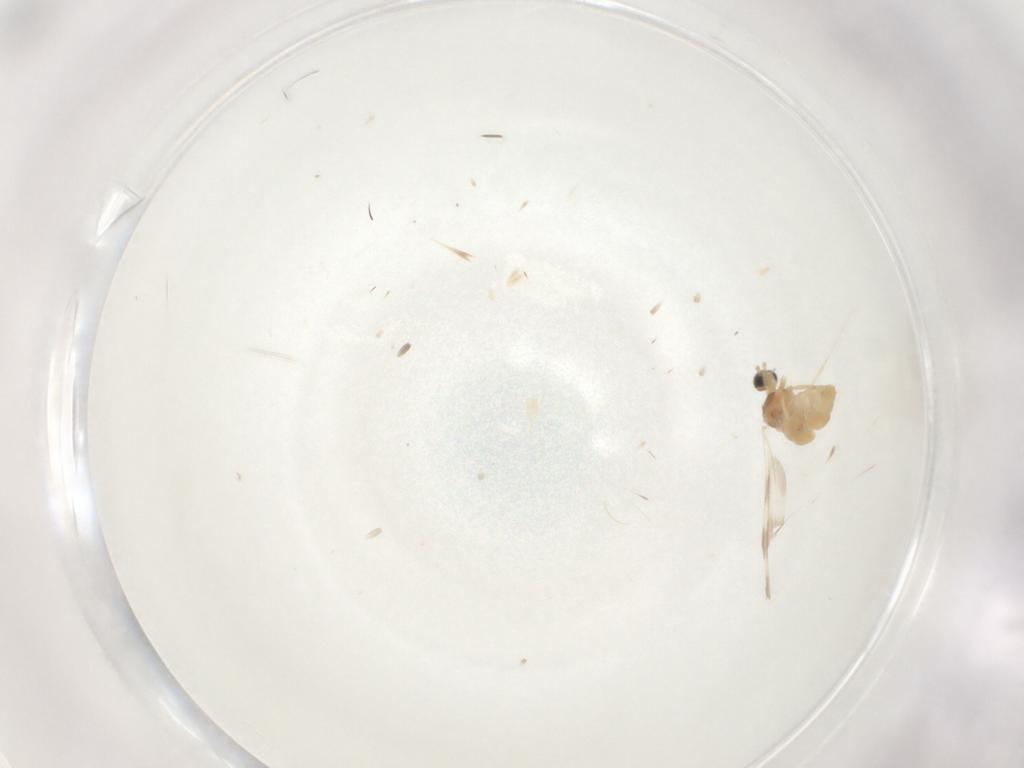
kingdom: Animalia
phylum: Arthropoda
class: Insecta
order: Diptera
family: Cecidomyiidae
